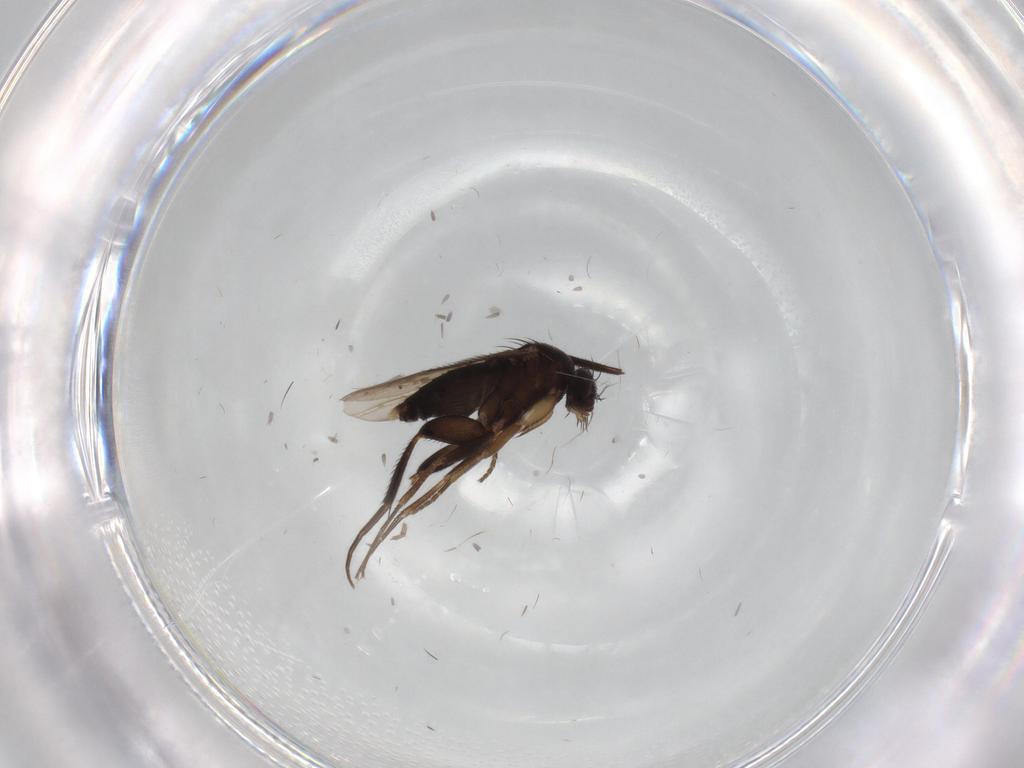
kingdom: Animalia
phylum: Arthropoda
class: Insecta
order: Diptera
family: Phoridae
